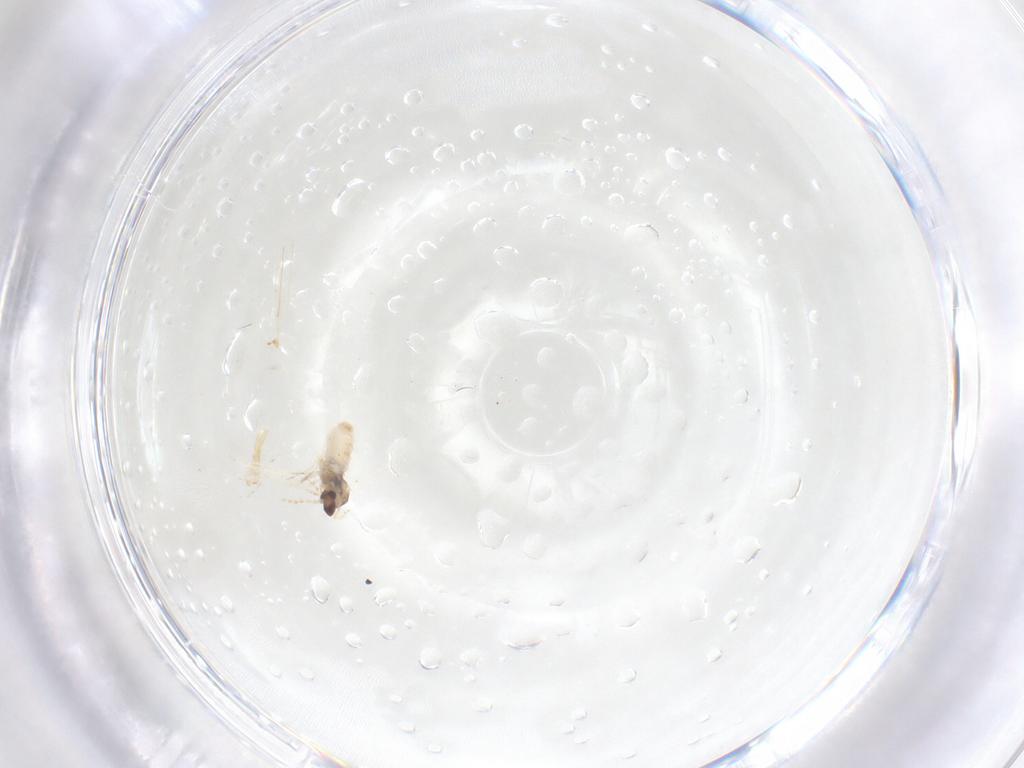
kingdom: Animalia
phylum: Arthropoda
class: Insecta
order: Diptera
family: Cecidomyiidae
